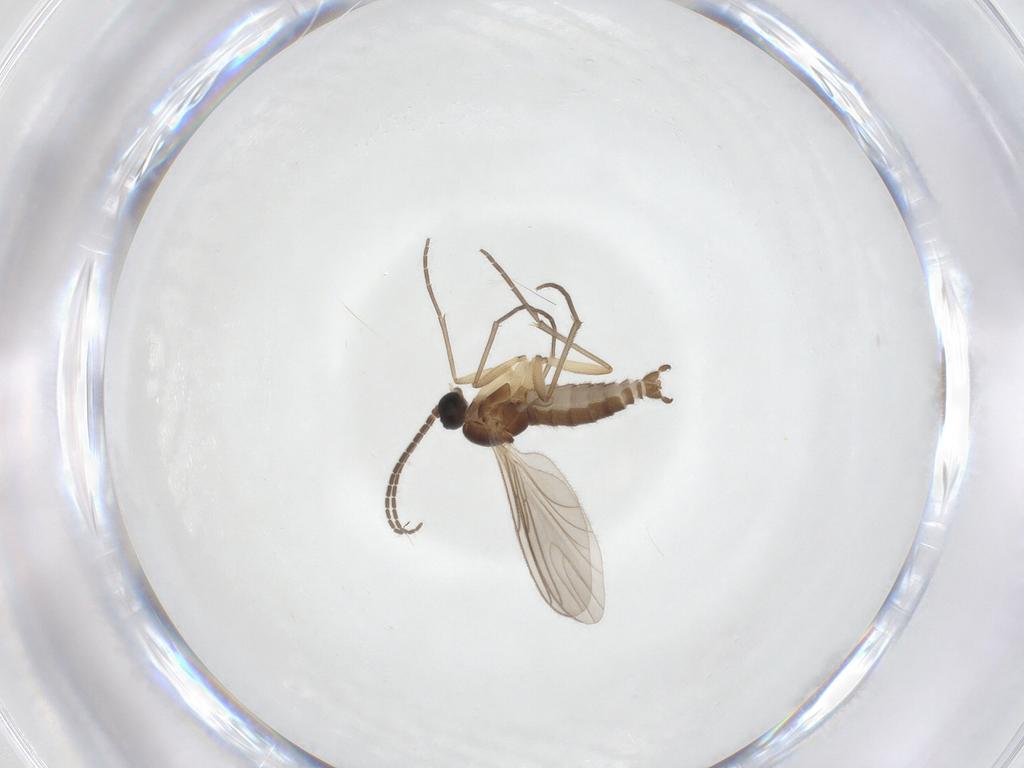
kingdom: Animalia
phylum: Arthropoda
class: Insecta
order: Diptera
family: Sciaridae
